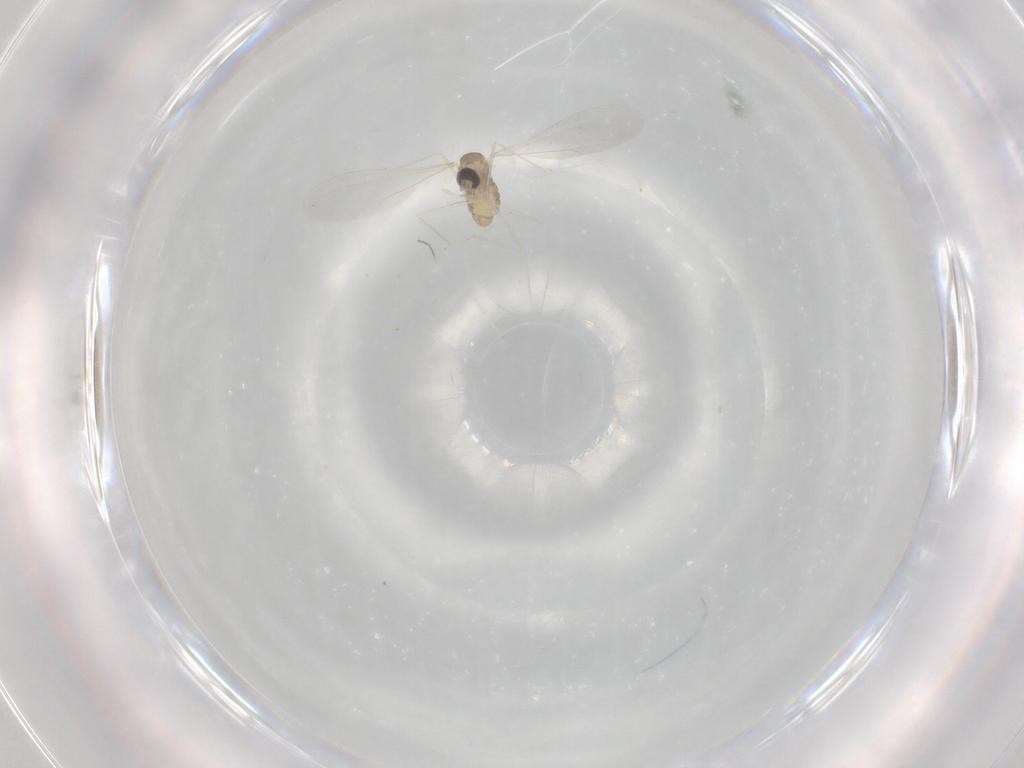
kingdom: Animalia
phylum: Arthropoda
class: Insecta
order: Diptera
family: Cecidomyiidae
